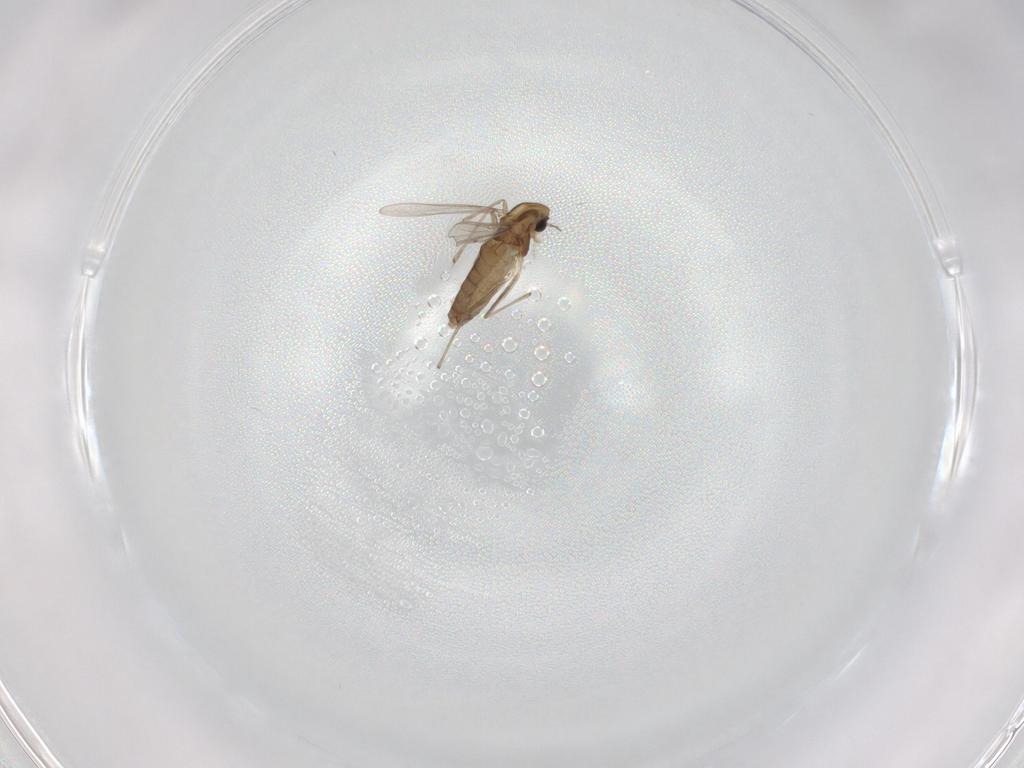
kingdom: Animalia
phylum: Arthropoda
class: Insecta
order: Diptera
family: Chironomidae
